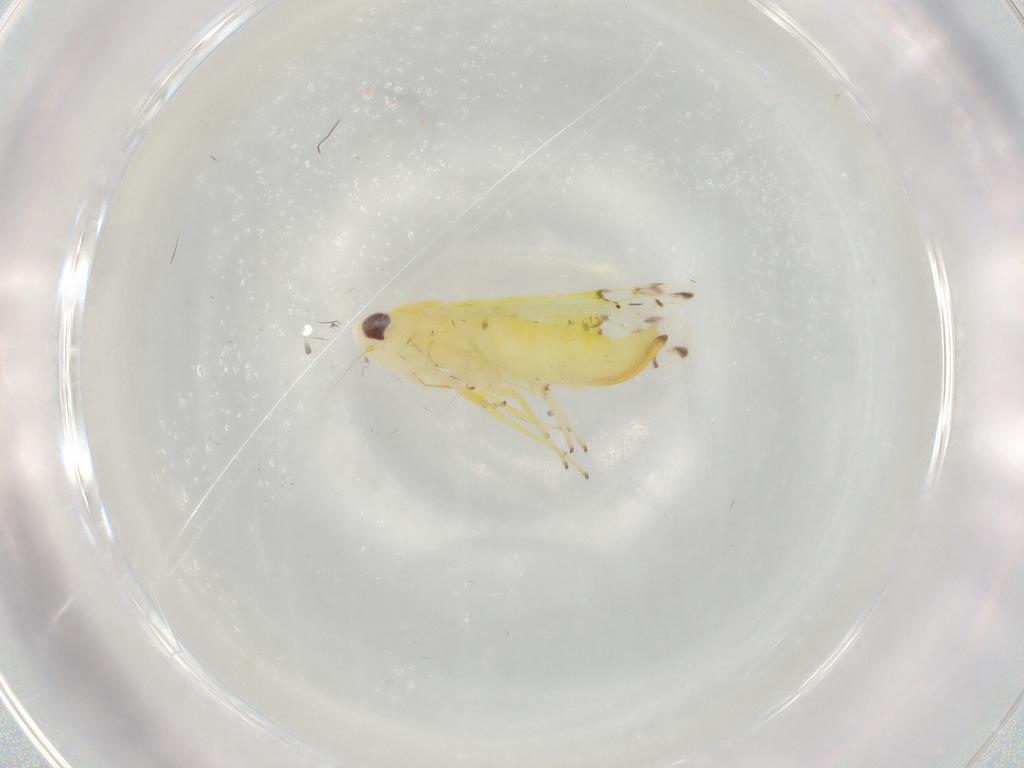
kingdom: Animalia
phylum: Arthropoda
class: Insecta
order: Hemiptera
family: Cicadellidae
